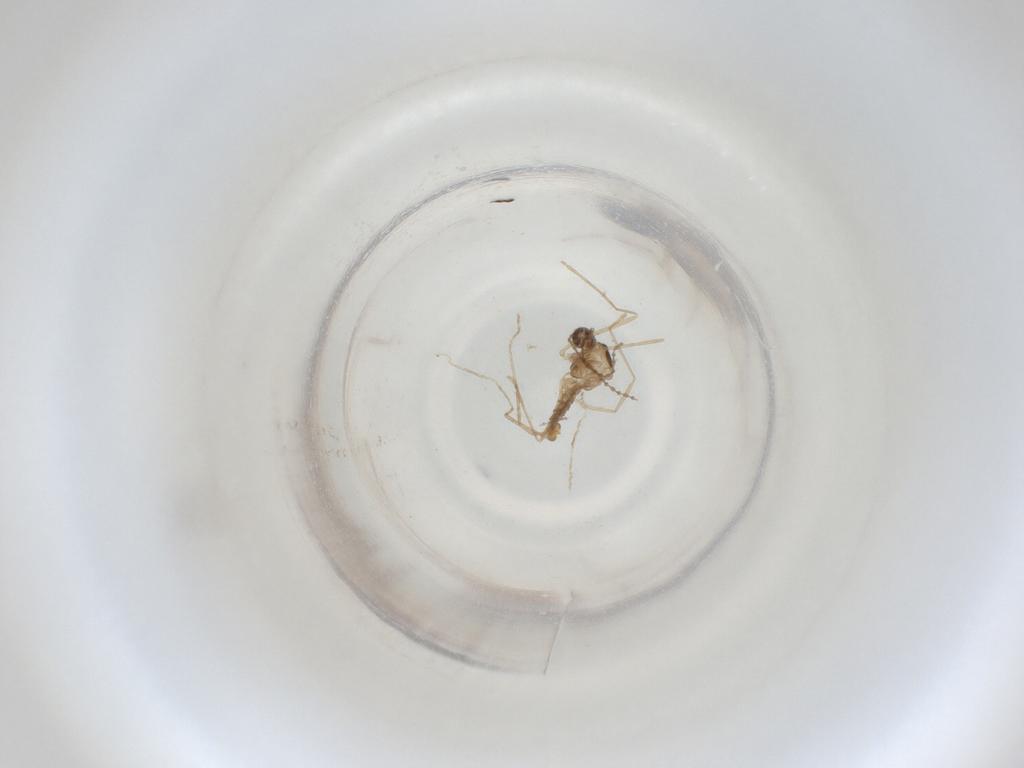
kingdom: Animalia
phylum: Arthropoda
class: Insecta
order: Diptera
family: Cecidomyiidae
